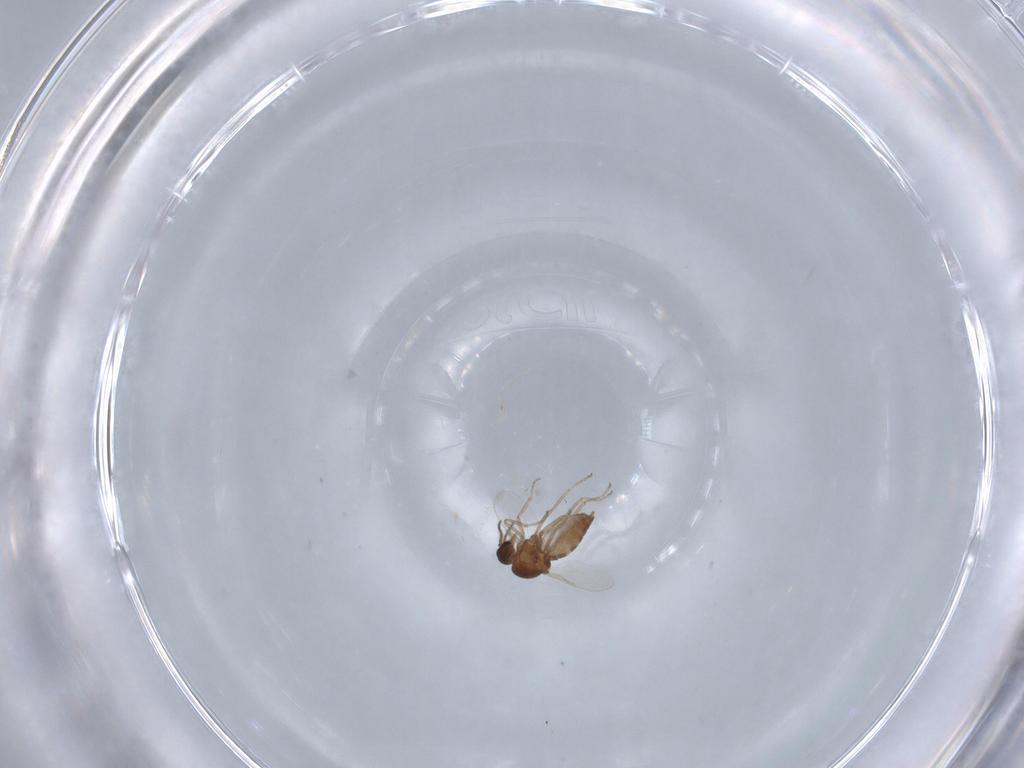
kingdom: Animalia
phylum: Arthropoda
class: Insecta
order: Diptera
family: Ceratopogonidae
